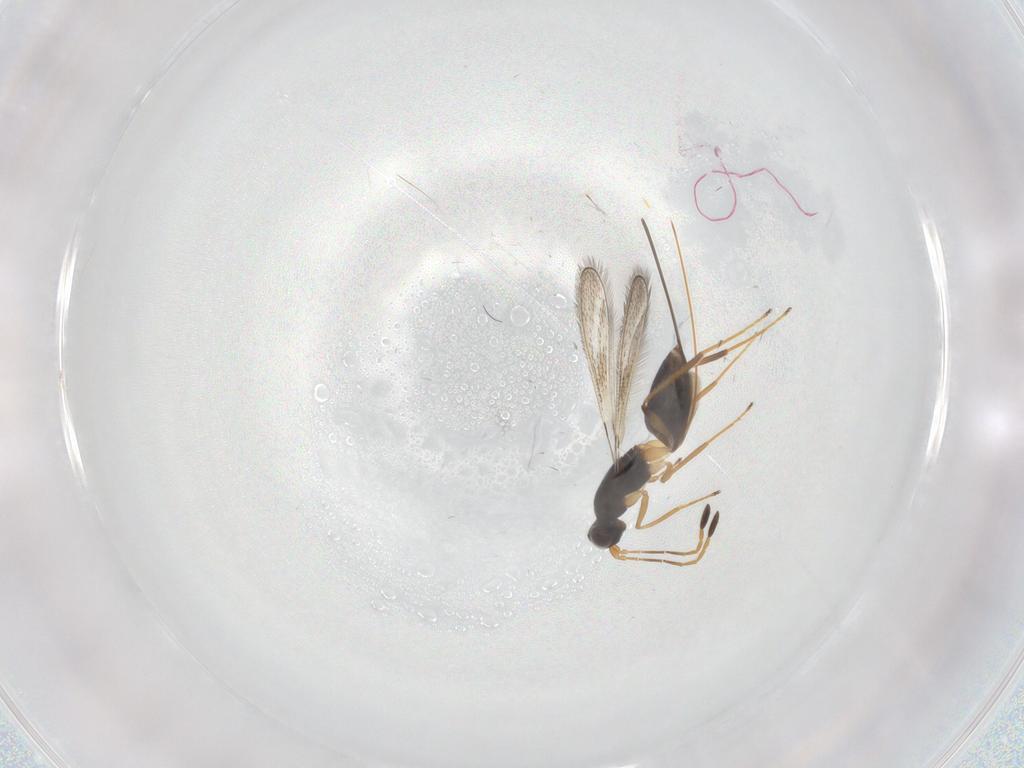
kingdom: Animalia
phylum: Arthropoda
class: Insecta
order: Hymenoptera
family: Mymaridae
